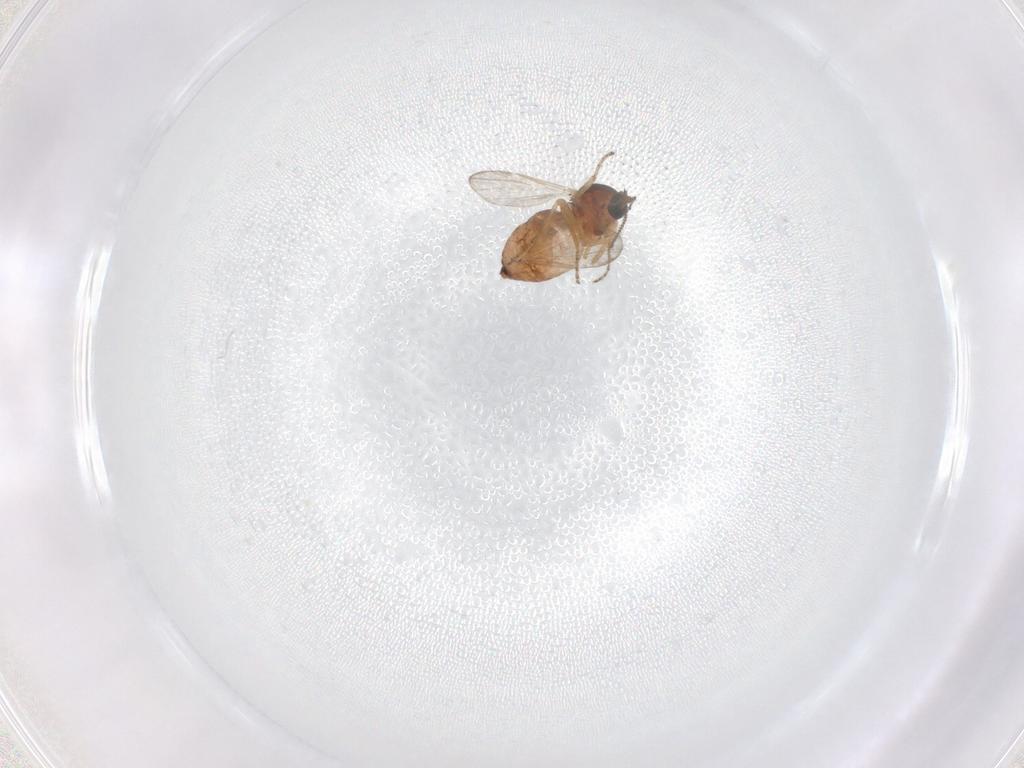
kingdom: Animalia
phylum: Arthropoda
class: Insecta
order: Diptera
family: Ceratopogonidae
